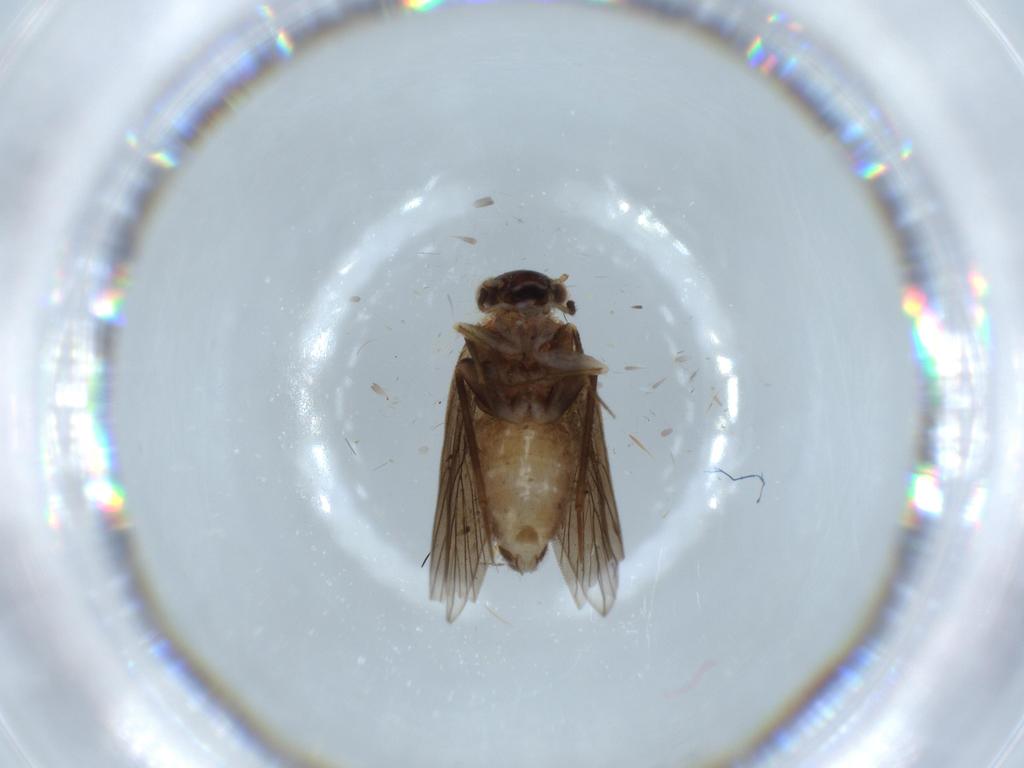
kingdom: Animalia
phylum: Arthropoda
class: Insecta
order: Psocodea
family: Lepidopsocidae
